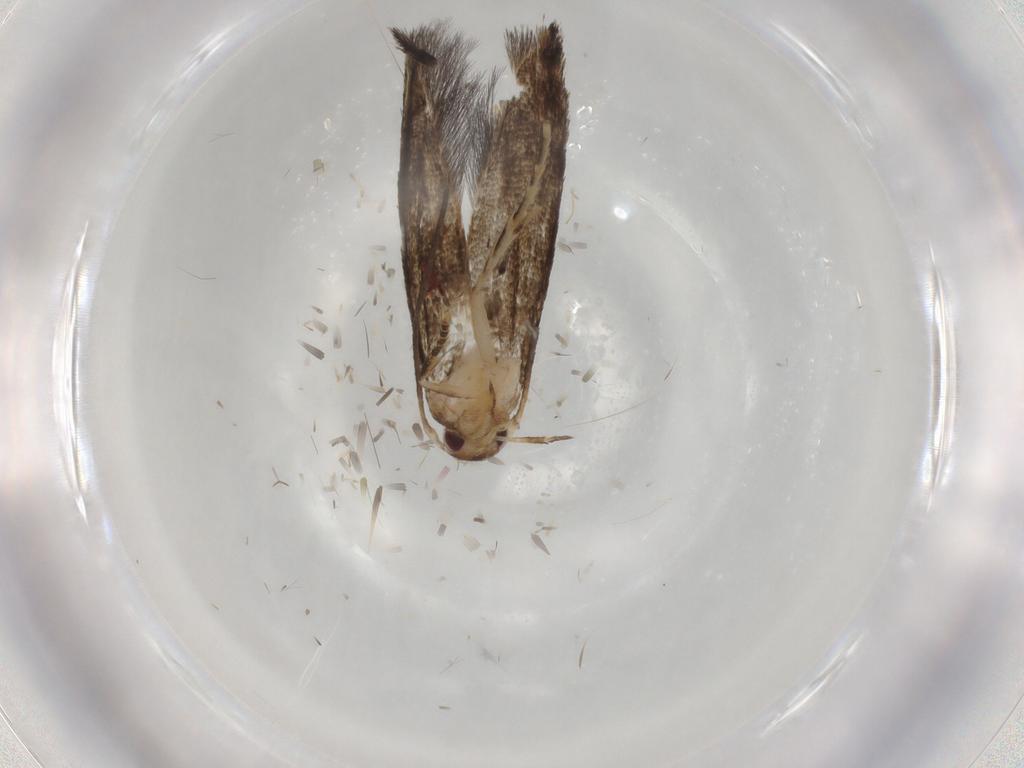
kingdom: Animalia
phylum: Arthropoda
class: Insecta
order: Lepidoptera
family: Momphidae
